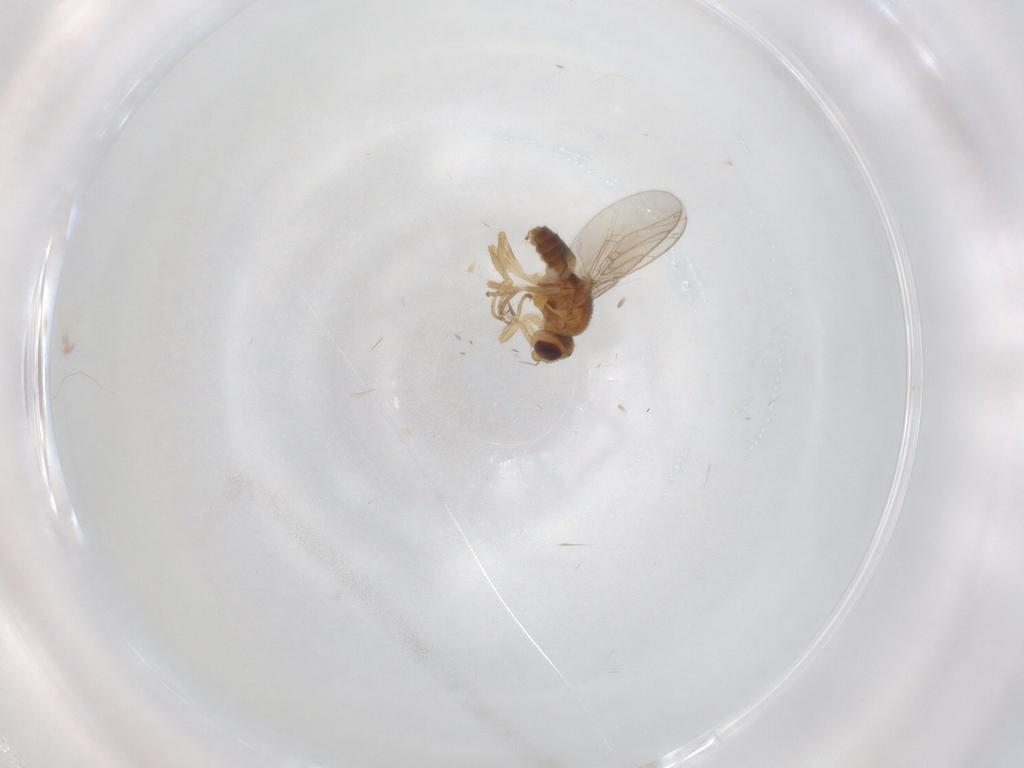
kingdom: Animalia
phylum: Arthropoda
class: Insecta
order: Diptera
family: Chloropidae
